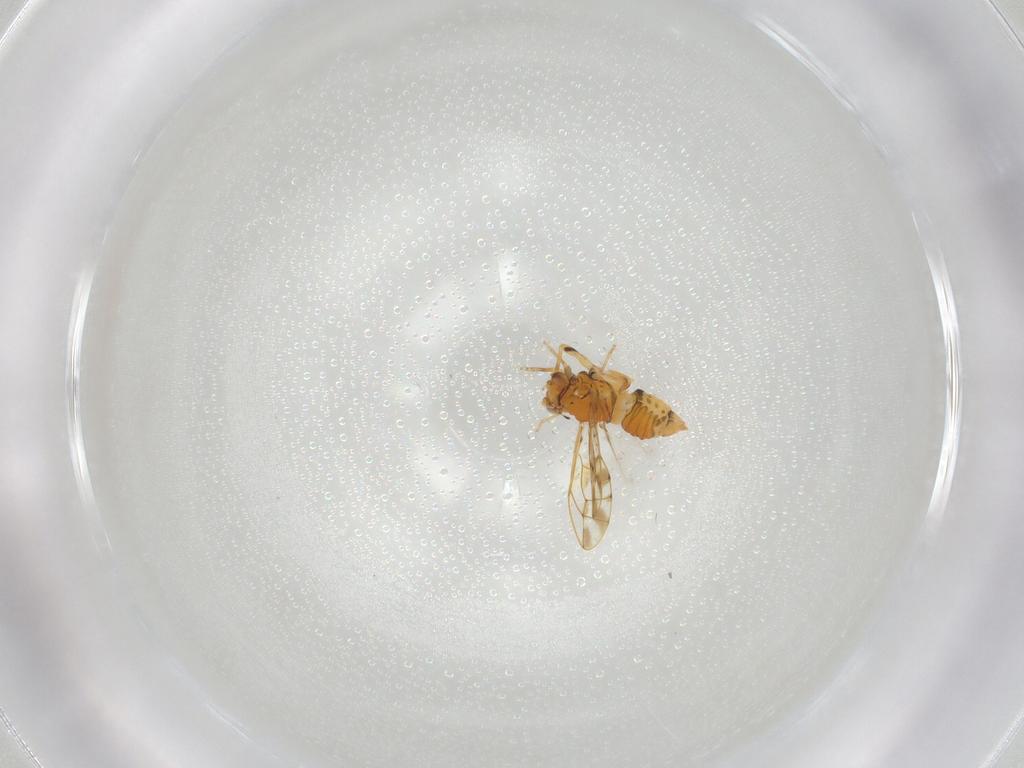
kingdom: Animalia
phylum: Arthropoda
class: Insecta
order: Hemiptera
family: Psylloidea_incertae_sedis
